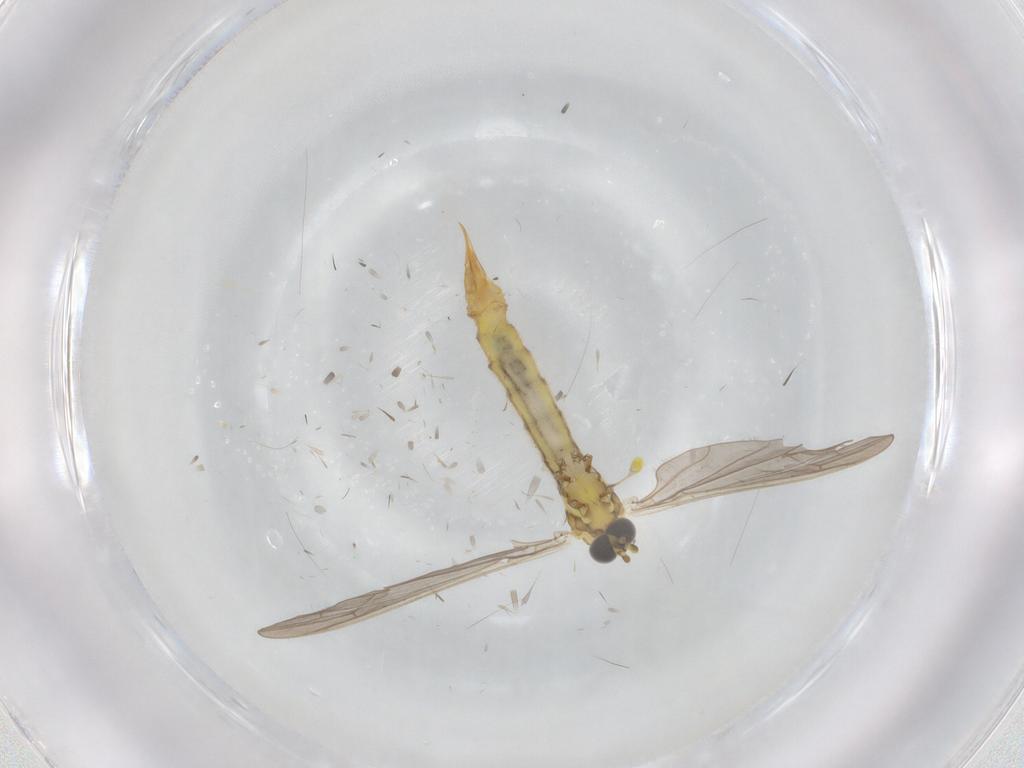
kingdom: Animalia
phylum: Arthropoda
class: Insecta
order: Diptera
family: Limoniidae
